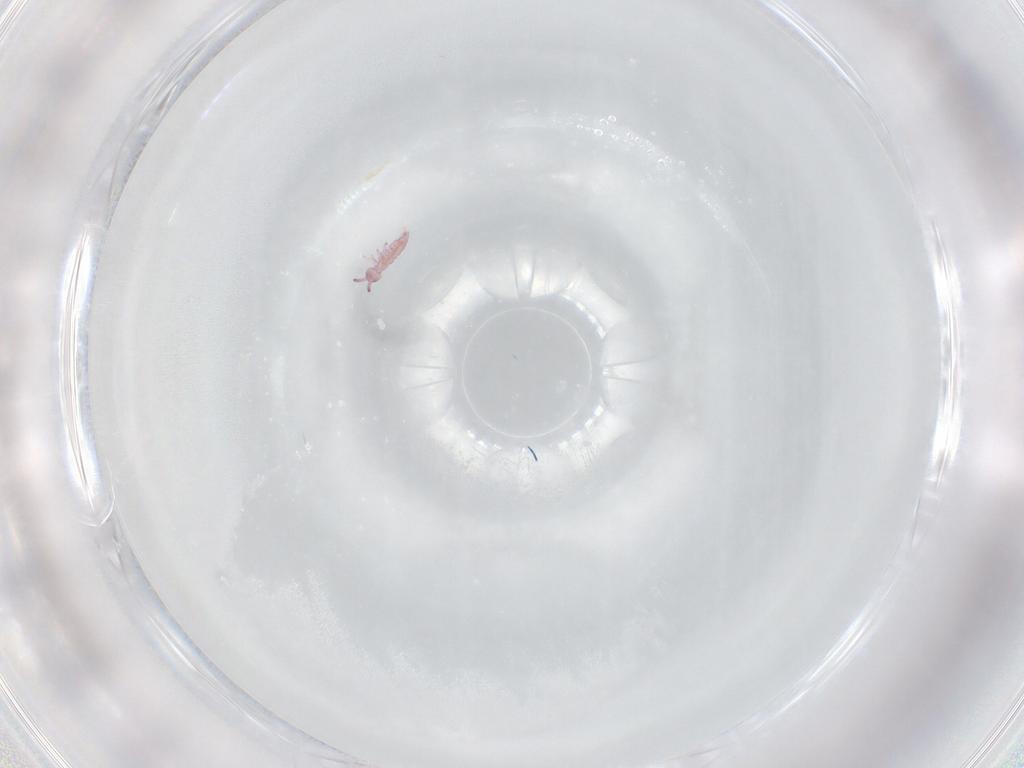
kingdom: Animalia
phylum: Arthropoda
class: Collembola
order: Entomobryomorpha
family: Isotomidae
